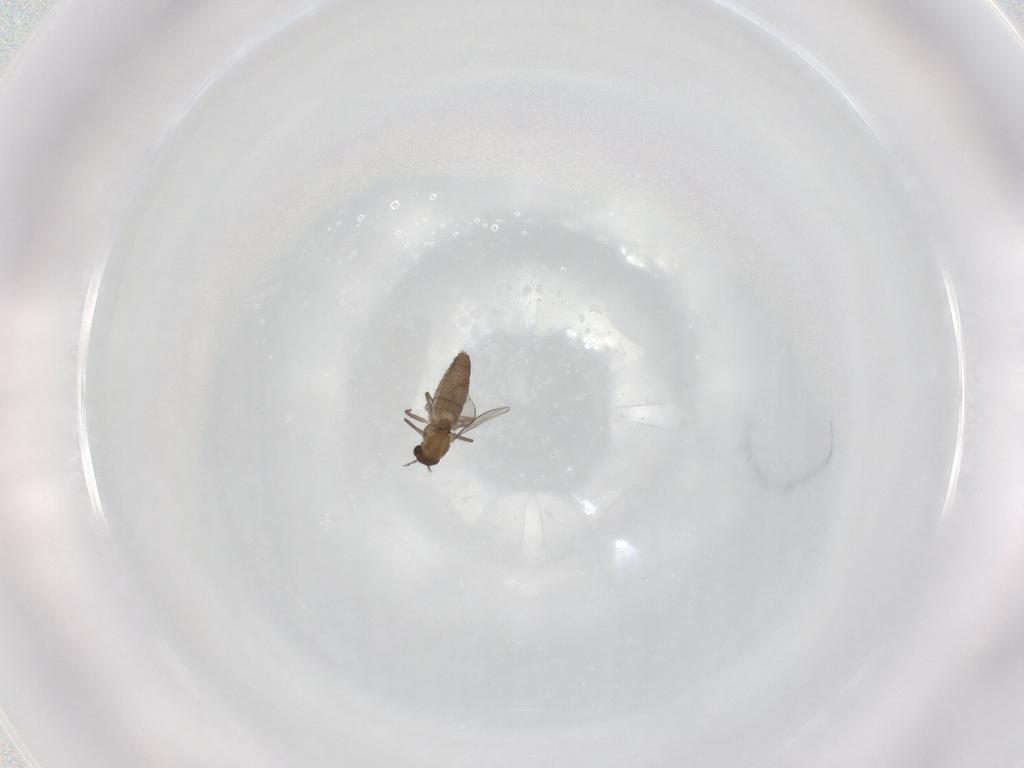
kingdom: Animalia
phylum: Arthropoda
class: Insecta
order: Diptera
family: Chironomidae
